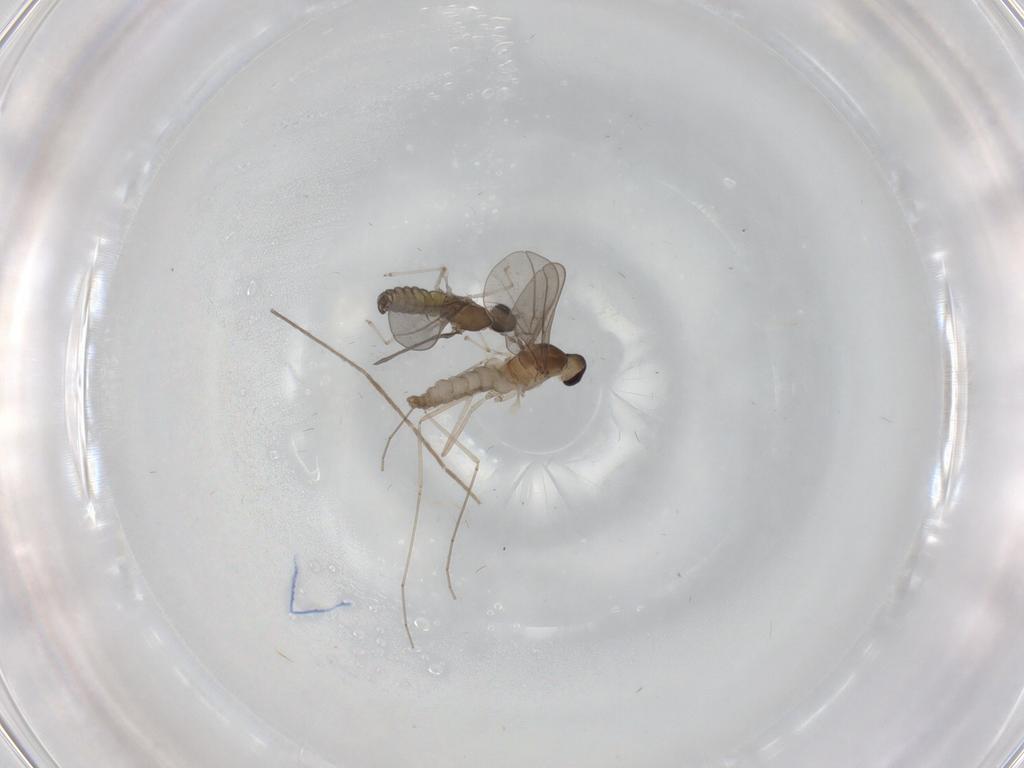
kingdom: Animalia
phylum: Arthropoda
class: Insecta
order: Diptera
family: Cecidomyiidae
